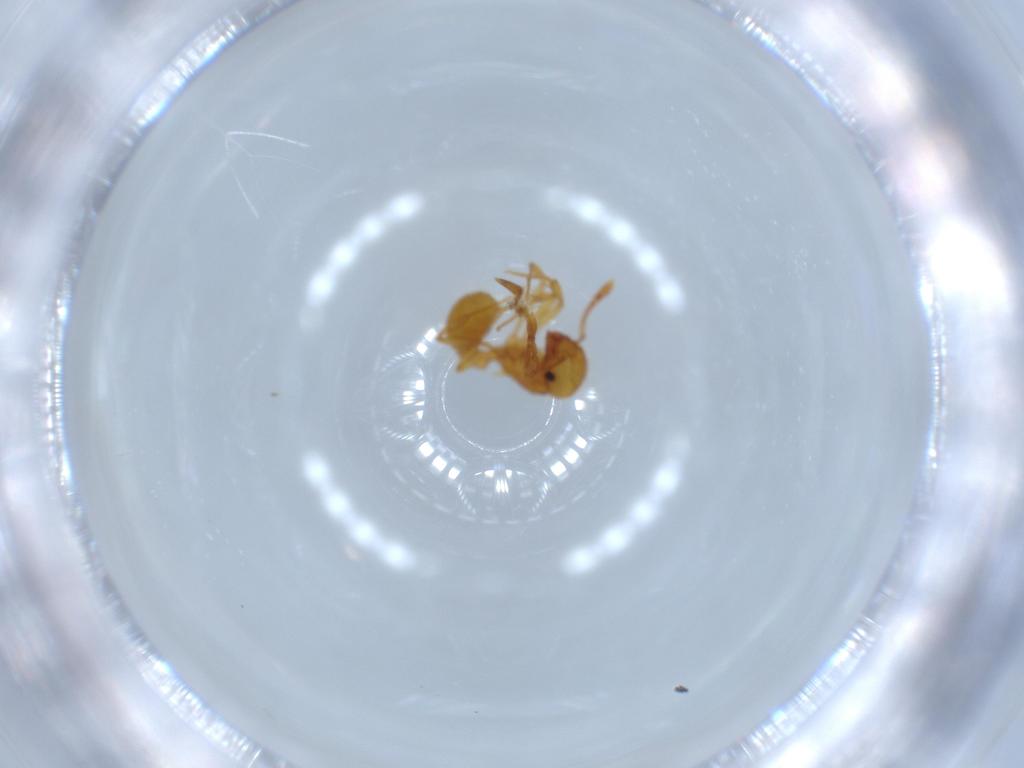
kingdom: Animalia
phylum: Arthropoda
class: Insecta
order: Hymenoptera
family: Formicidae
